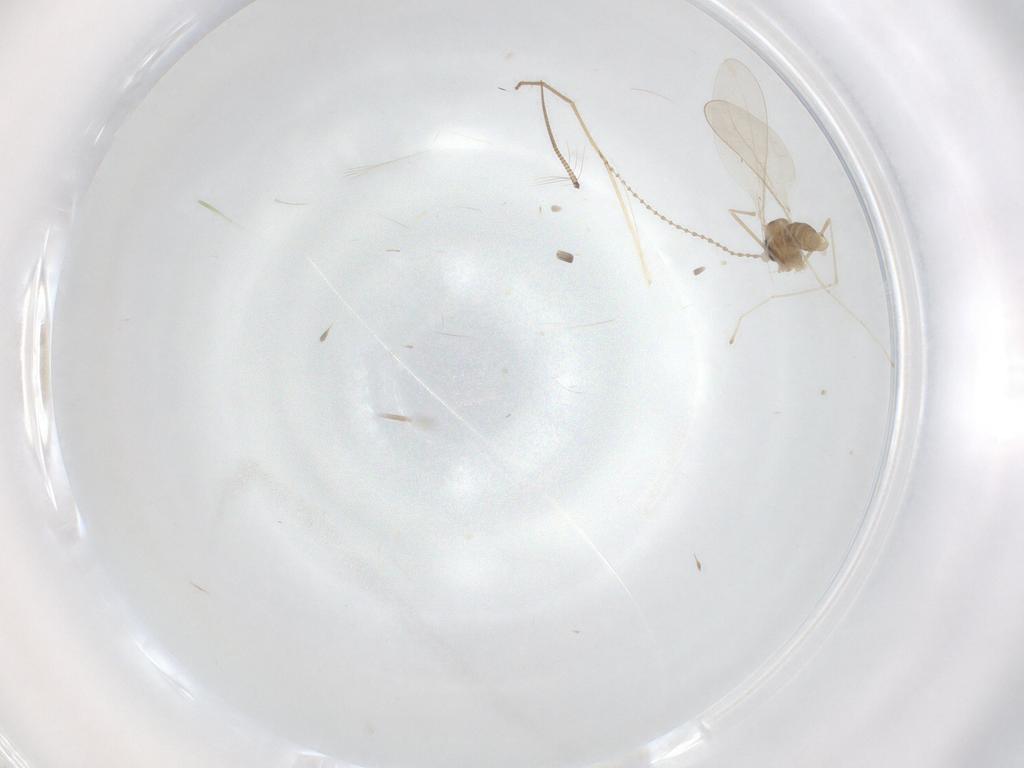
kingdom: Animalia
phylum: Arthropoda
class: Insecta
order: Diptera
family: Cecidomyiidae
